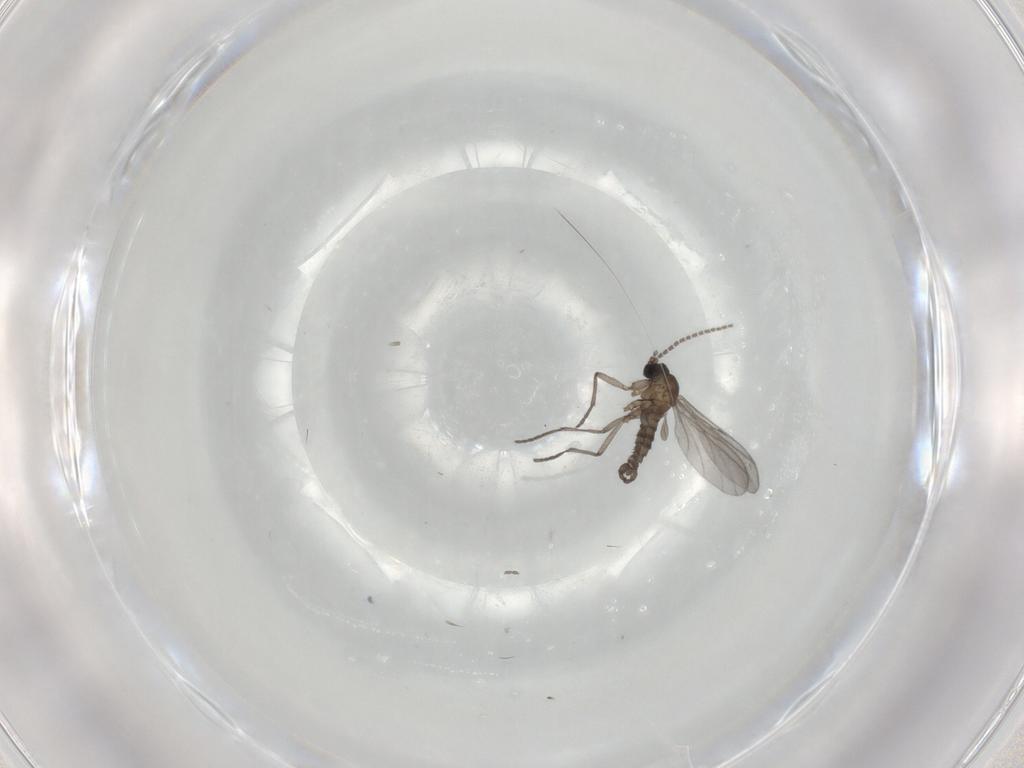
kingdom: Animalia
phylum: Arthropoda
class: Insecta
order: Diptera
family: Sciaridae
